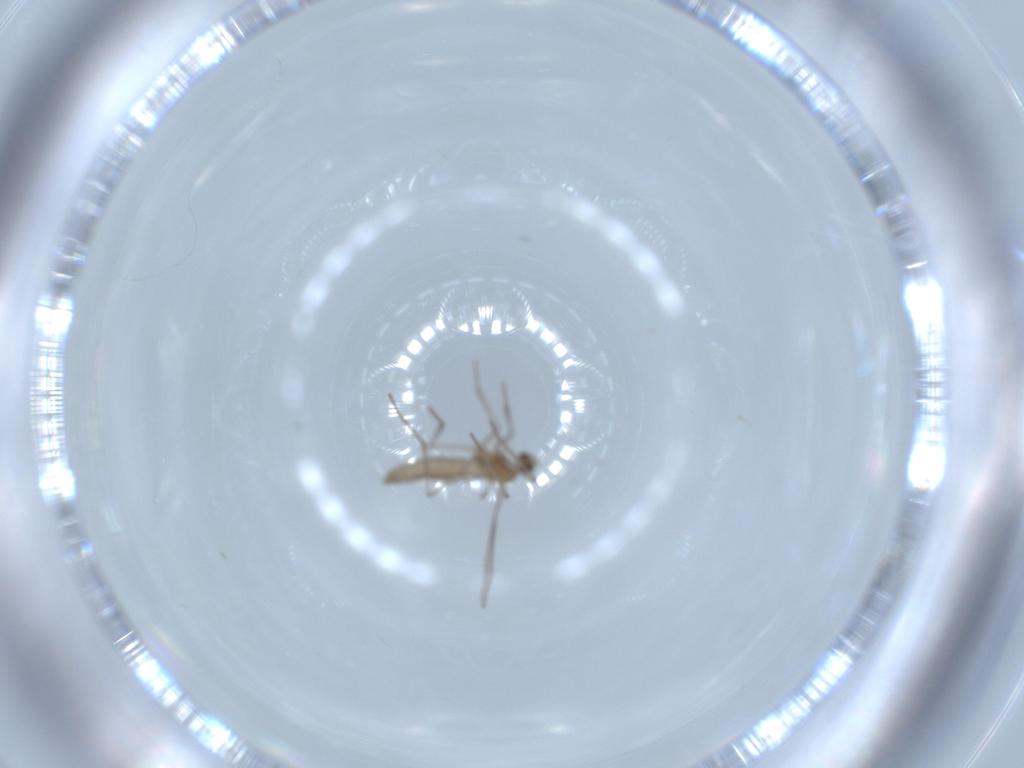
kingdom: Animalia
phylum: Arthropoda
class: Insecta
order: Diptera
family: Cecidomyiidae
